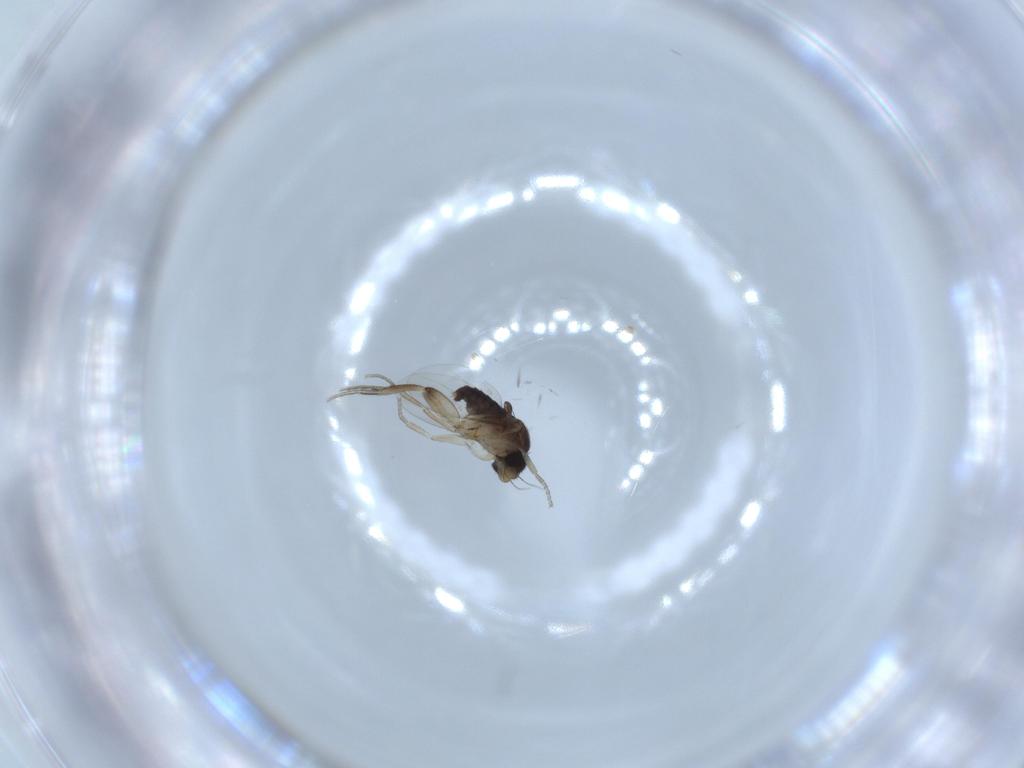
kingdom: Animalia
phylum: Arthropoda
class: Insecta
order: Diptera
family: Phoridae
